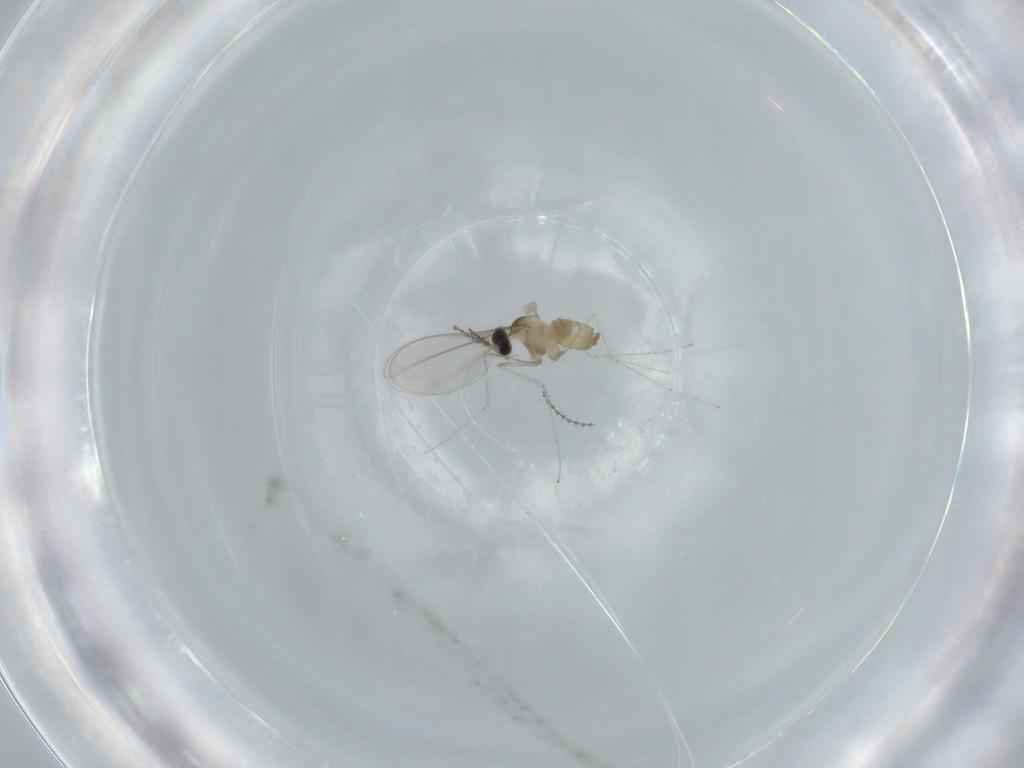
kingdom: Animalia
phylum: Arthropoda
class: Insecta
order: Diptera
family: Cecidomyiidae
